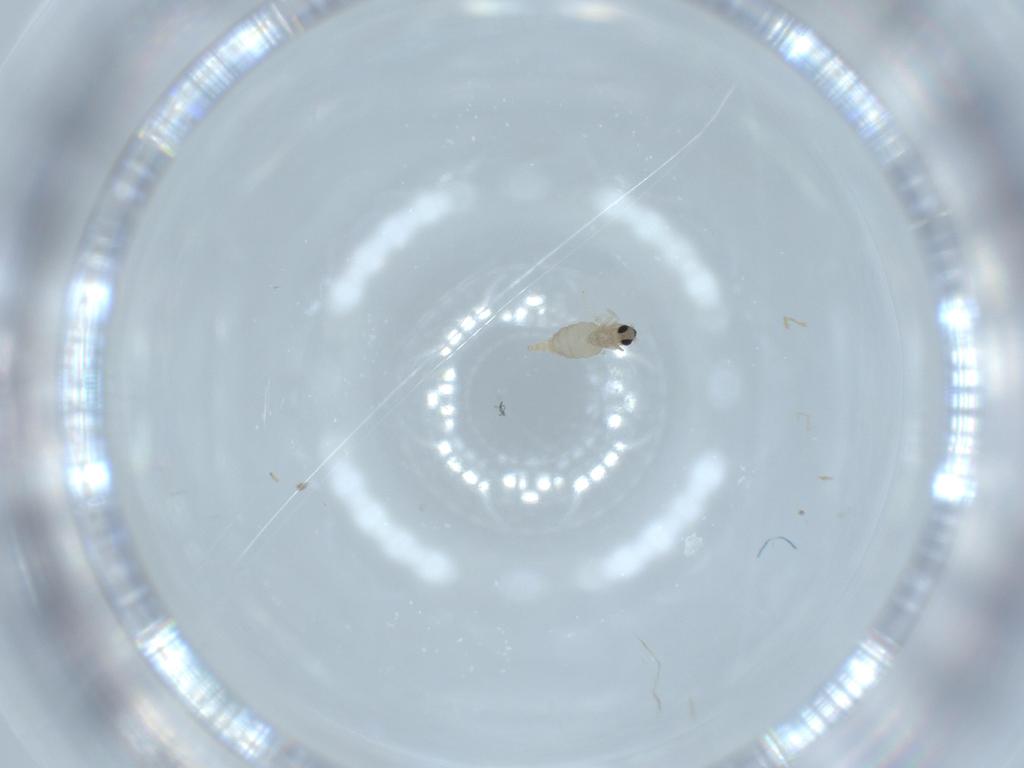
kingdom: Animalia
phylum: Arthropoda
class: Insecta
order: Diptera
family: Cecidomyiidae
